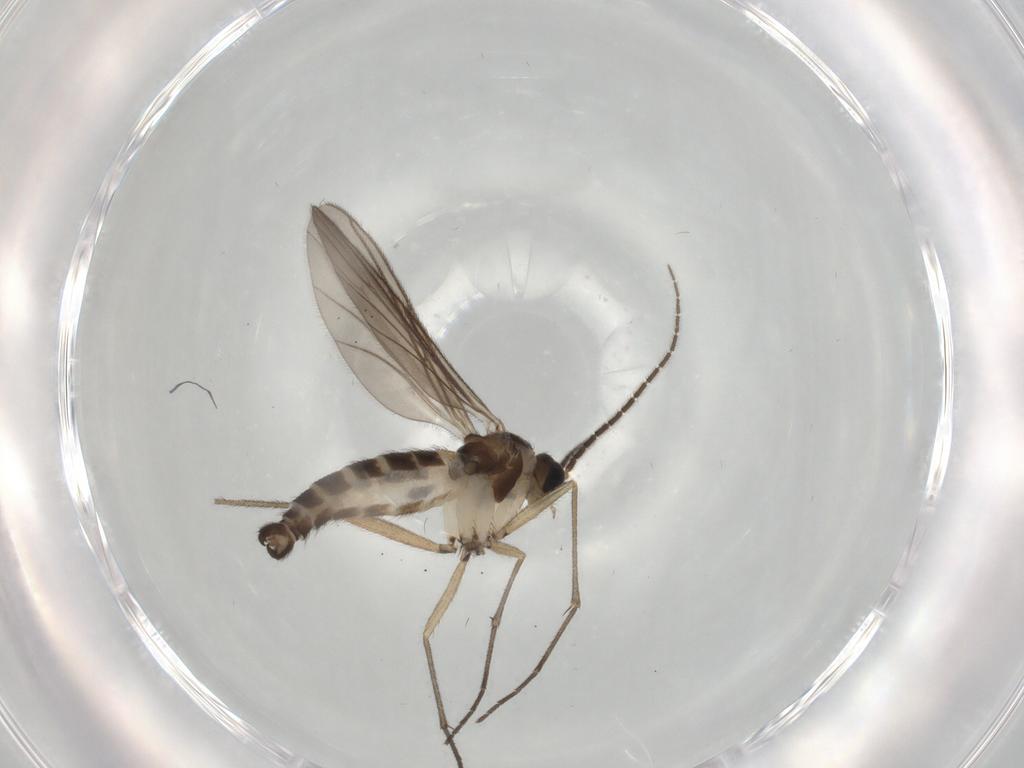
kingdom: Animalia
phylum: Arthropoda
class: Insecta
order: Diptera
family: Sciaridae
